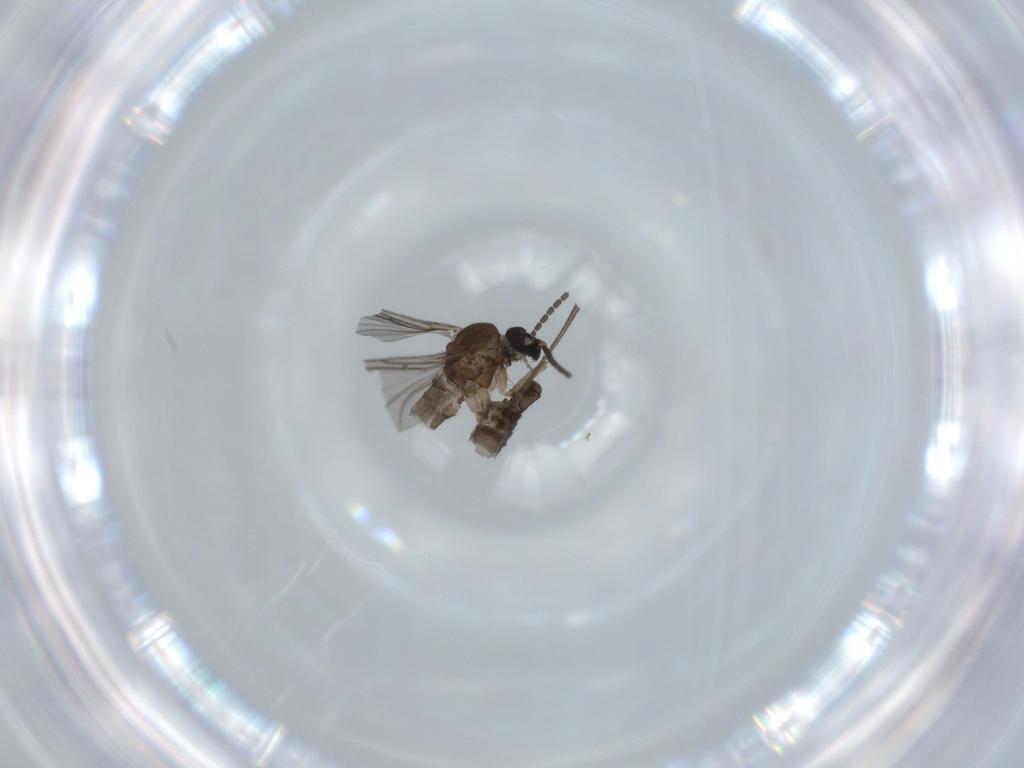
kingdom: Animalia
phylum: Arthropoda
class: Insecta
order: Diptera
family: Sciaridae
